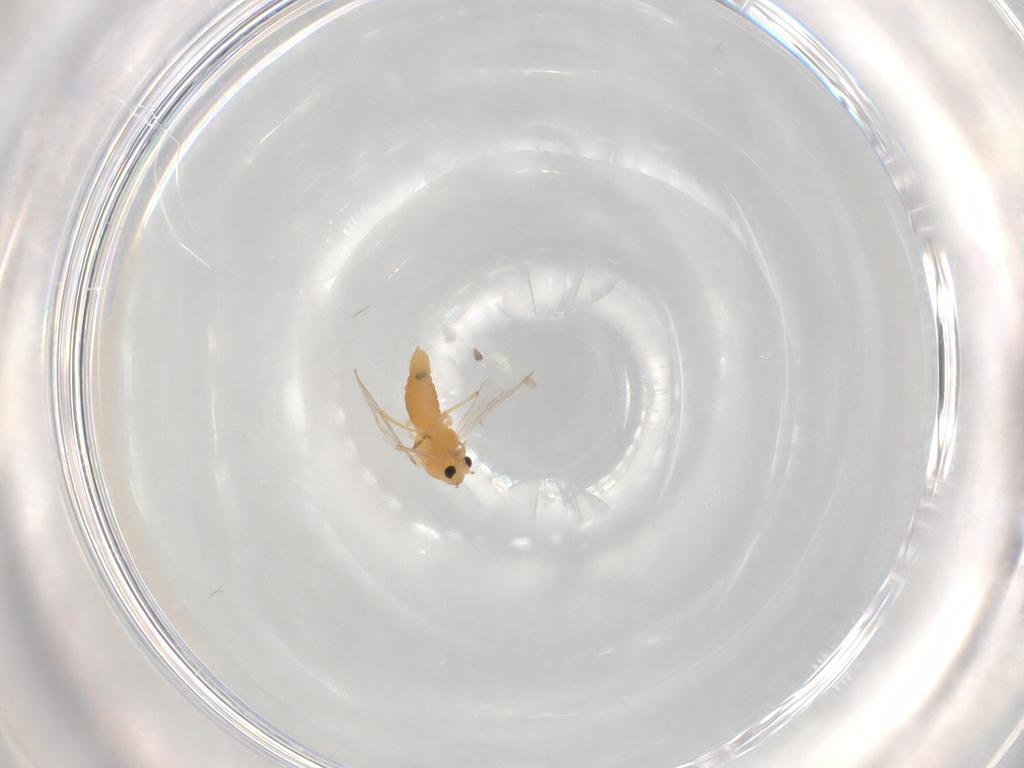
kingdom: Animalia
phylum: Arthropoda
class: Insecta
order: Diptera
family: Chironomidae
